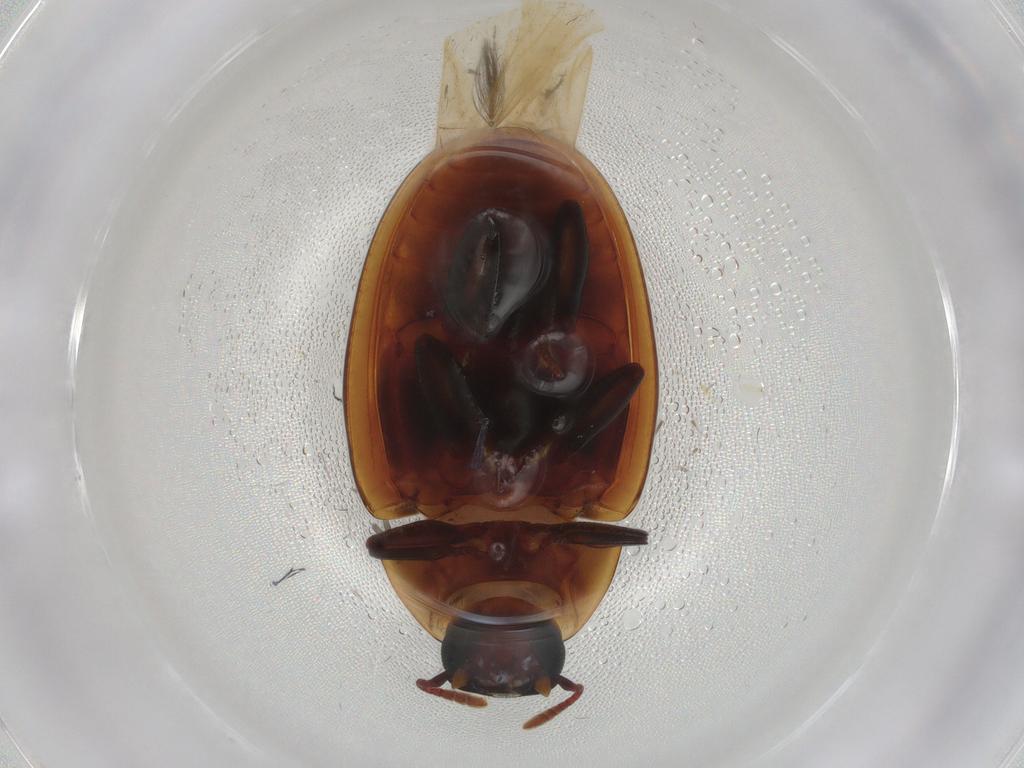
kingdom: Animalia
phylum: Arthropoda
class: Insecta
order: Coleoptera
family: Zopheridae
